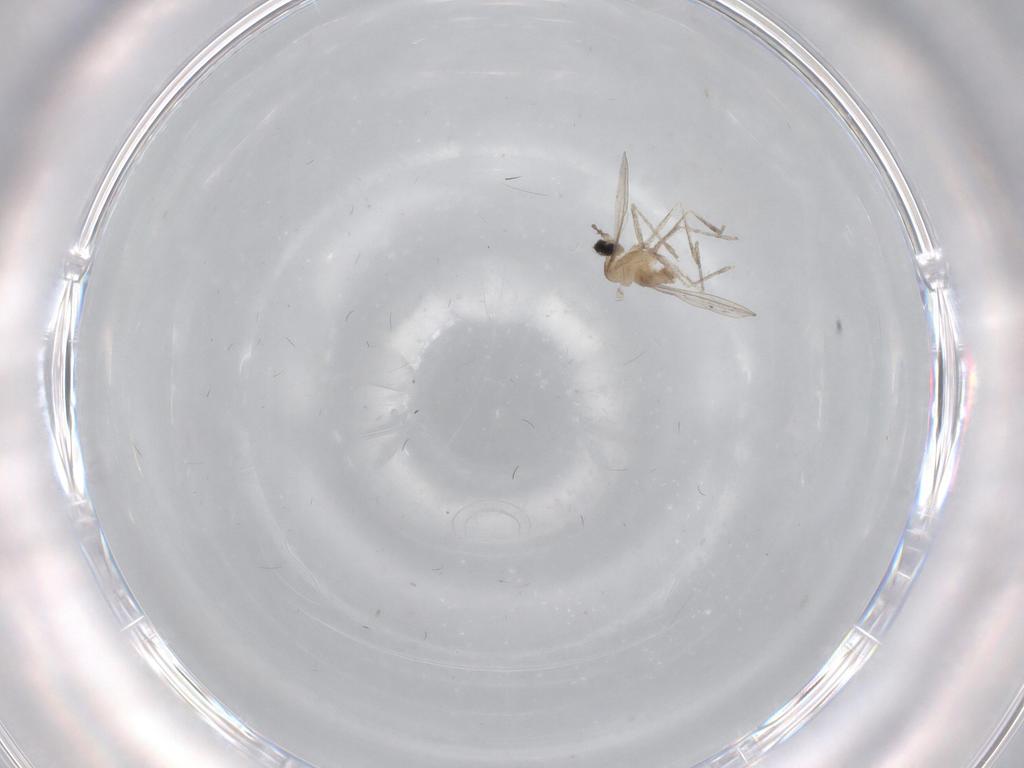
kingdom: Animalia
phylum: Arthropoda
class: Insecta
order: Diptera
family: Cecidomyiidae
